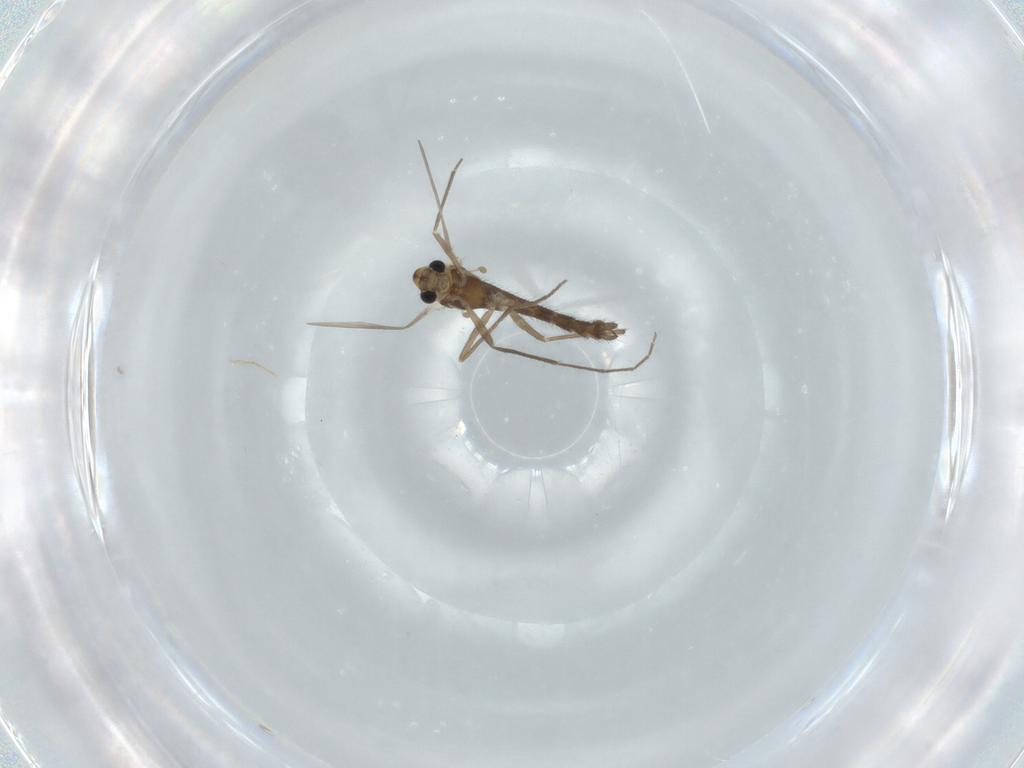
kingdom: Animalia
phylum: Arthropoda
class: Insecta
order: Diptera
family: Chironomidae
